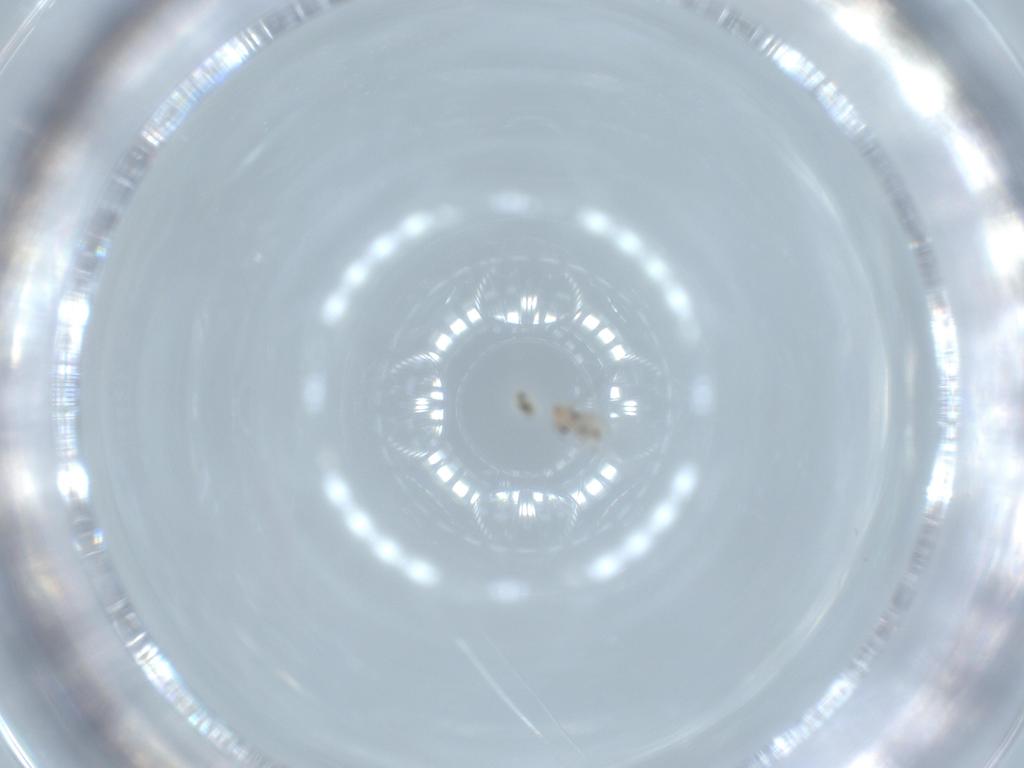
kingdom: Animalia
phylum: Arthropoda
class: Insecta
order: Psocodea
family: Lepidopsocidae
